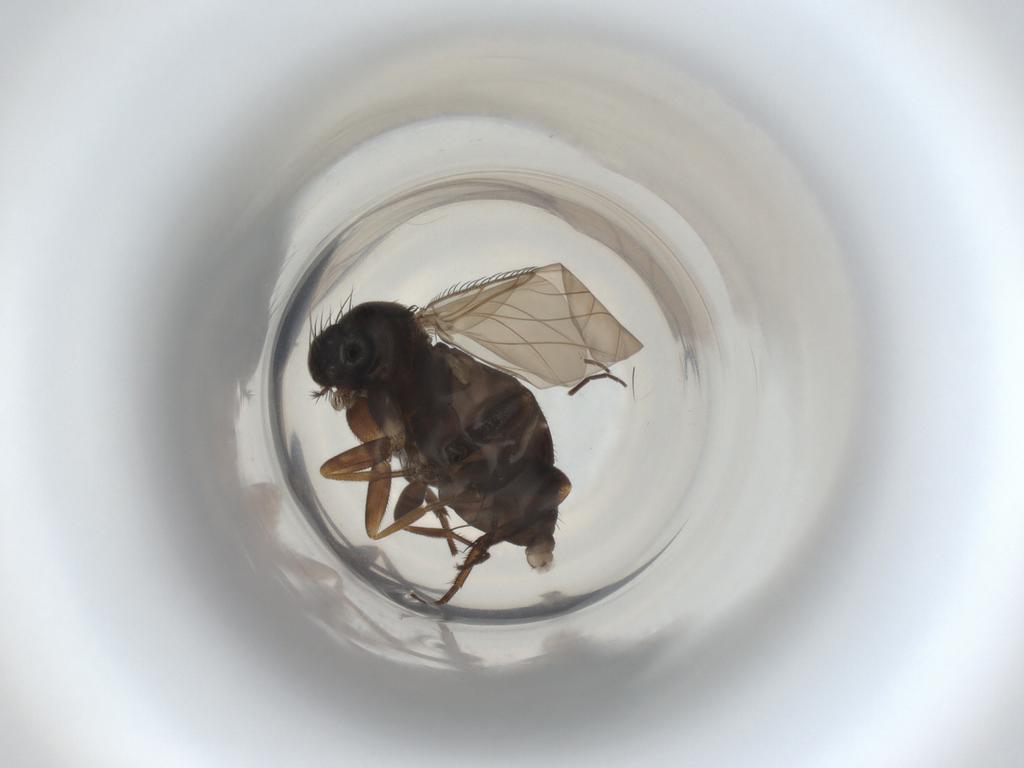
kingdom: Animalia
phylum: Arthropoda
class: Insecta
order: Diptera
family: Phoridae
